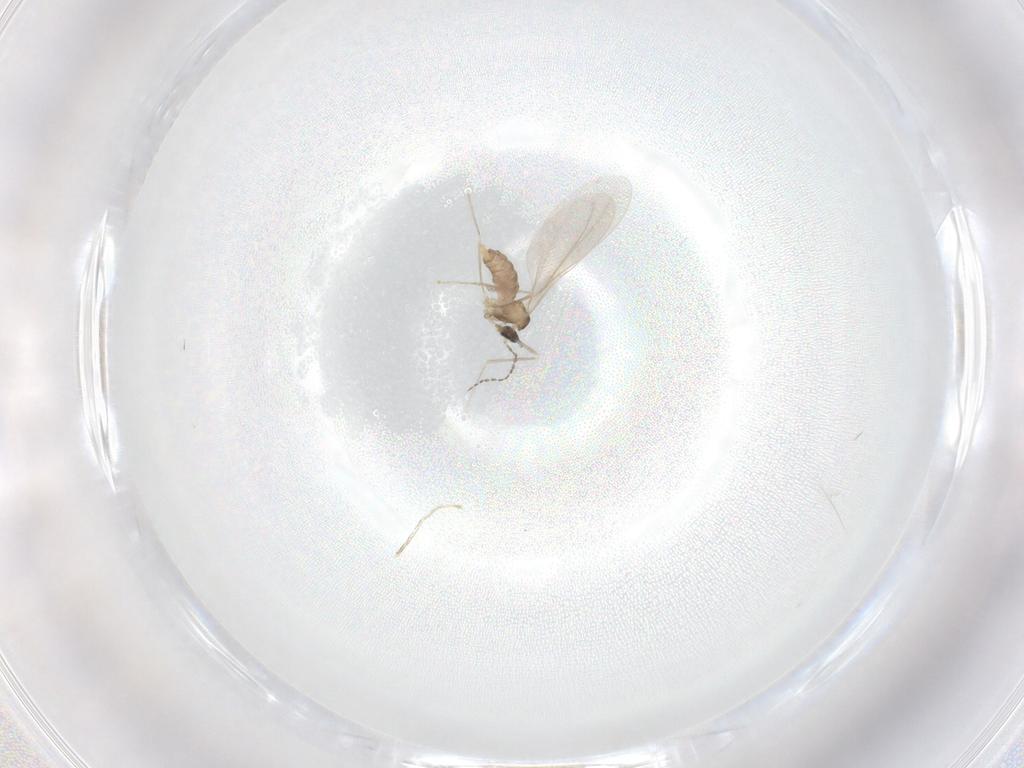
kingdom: Animalia
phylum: Arthropoda
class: Insecta
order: Diptera
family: Cecidomyiidae
